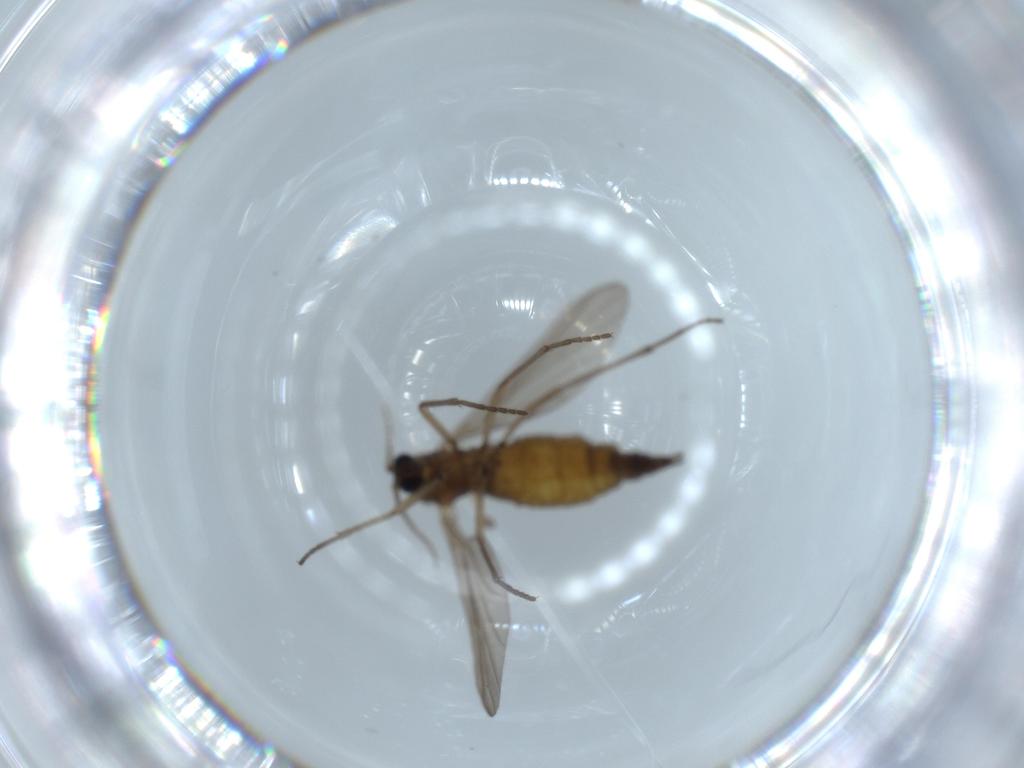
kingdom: Animalia
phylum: Arthropoda
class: Insecta
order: Diptera
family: Sciaridae
